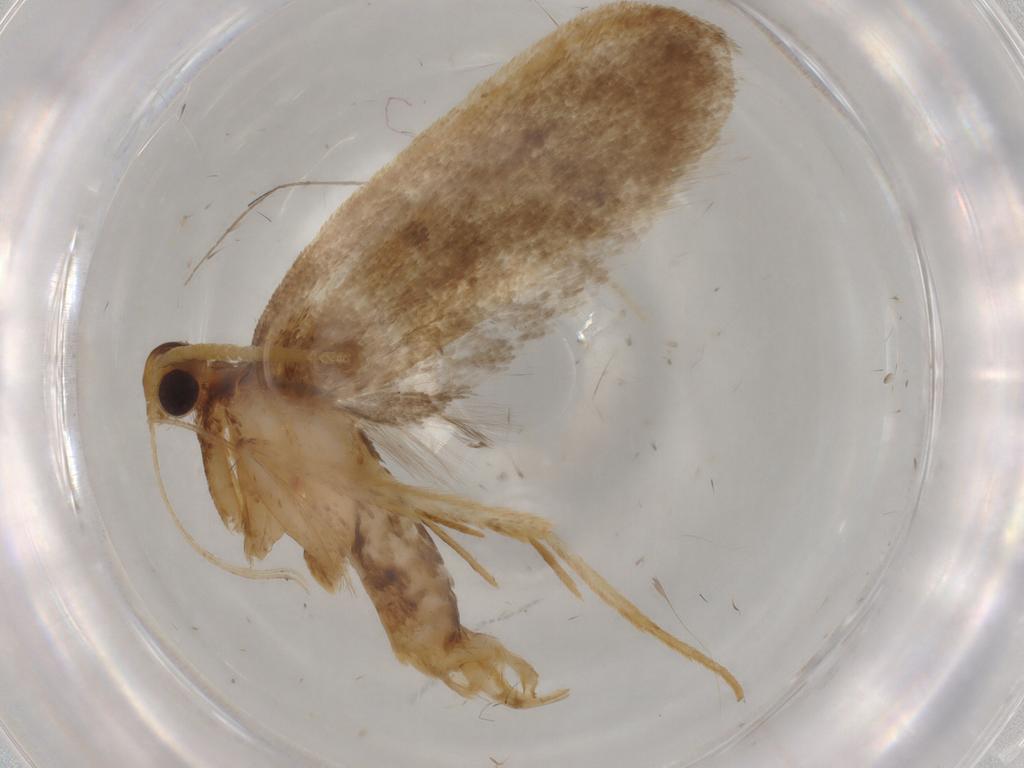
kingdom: Animalia
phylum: Arthropoda
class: Insecta
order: Lepidoptera
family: Lecithoceridae
